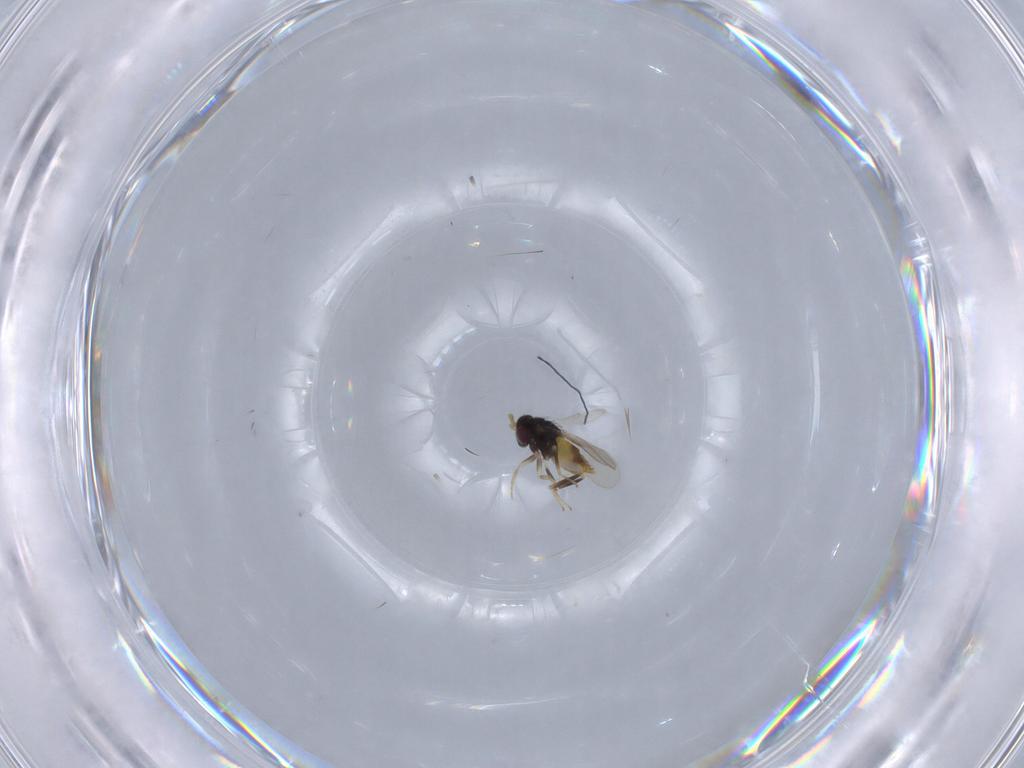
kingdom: Animalia
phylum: Arthropoda
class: Insecta
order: Hymenoptera
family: Aphelinidae
